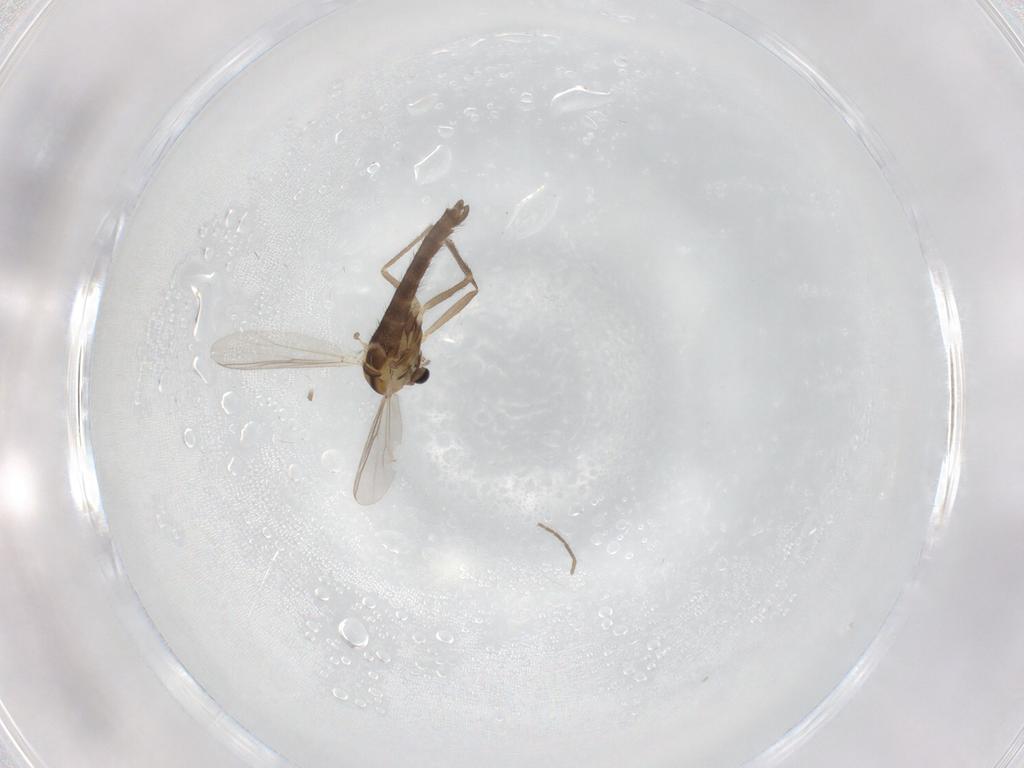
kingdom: Animalia
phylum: Arthropoda
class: Insecta
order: Diptera
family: Chironomidae
